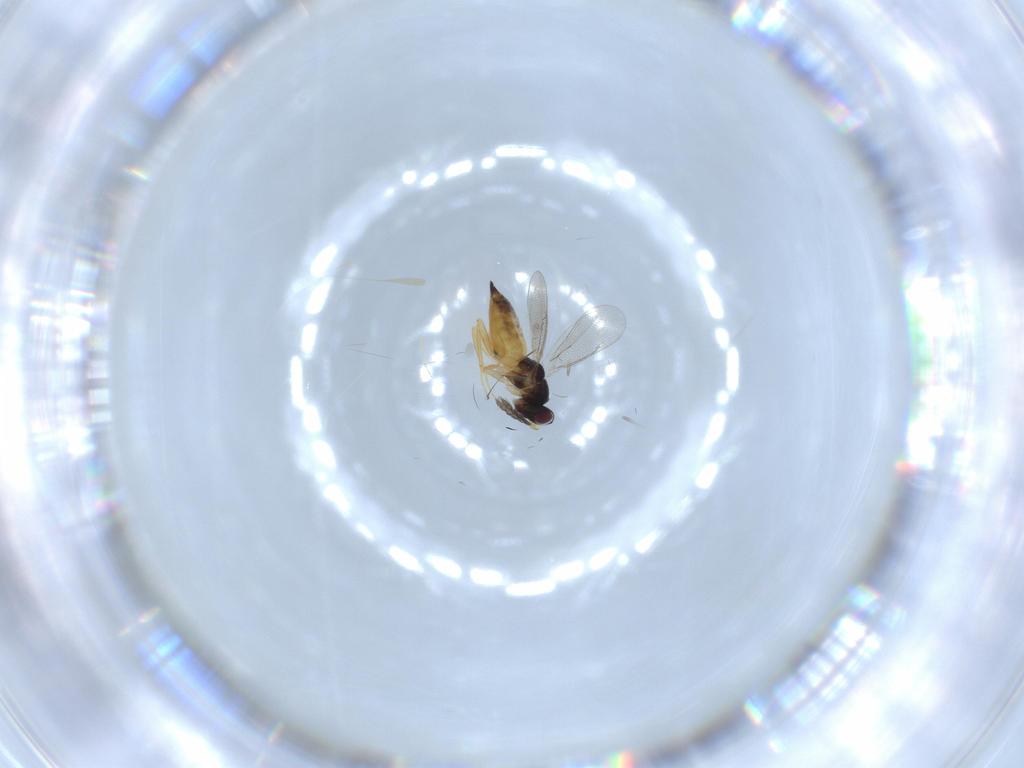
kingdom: Animalia
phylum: Arthropoda
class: Insecta
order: Hymenoptera
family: Eulophidae
